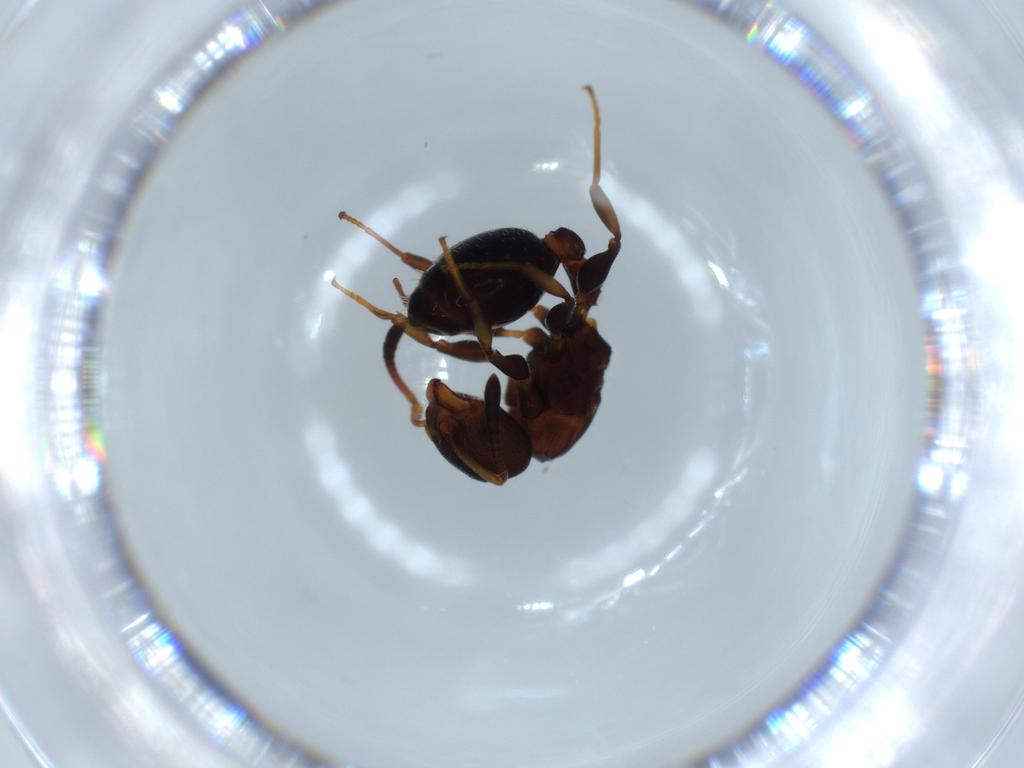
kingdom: Animalia
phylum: Arthropoda
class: Insecta
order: Hymenoptera
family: Formicidae
